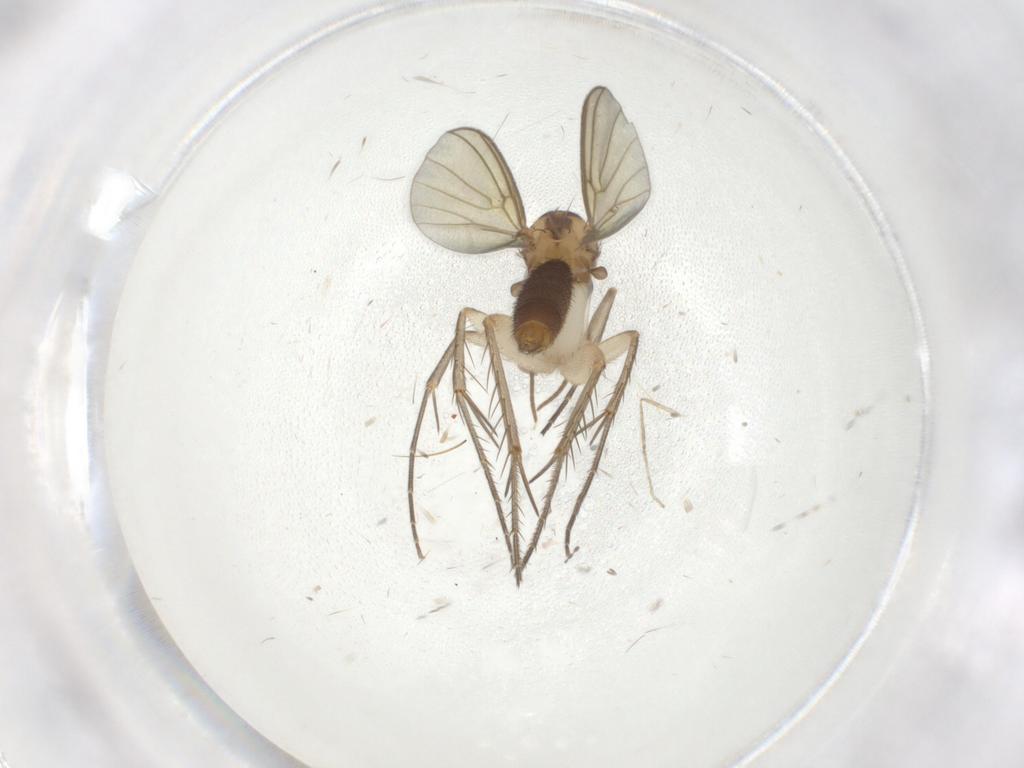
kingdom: Animalia
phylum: Arthropoda
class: Insecta
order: Diptera
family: Mycetophilidae
